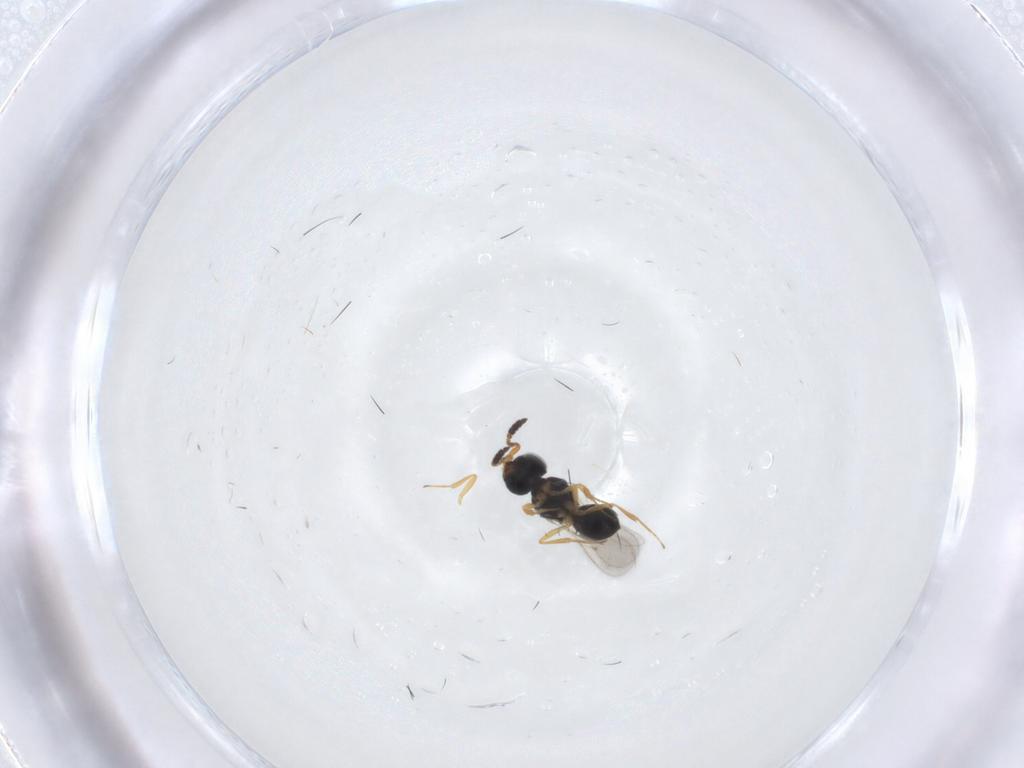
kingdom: Animalia
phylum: Arthropoda
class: Insecta
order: Hymenoptera
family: Scelionidae
